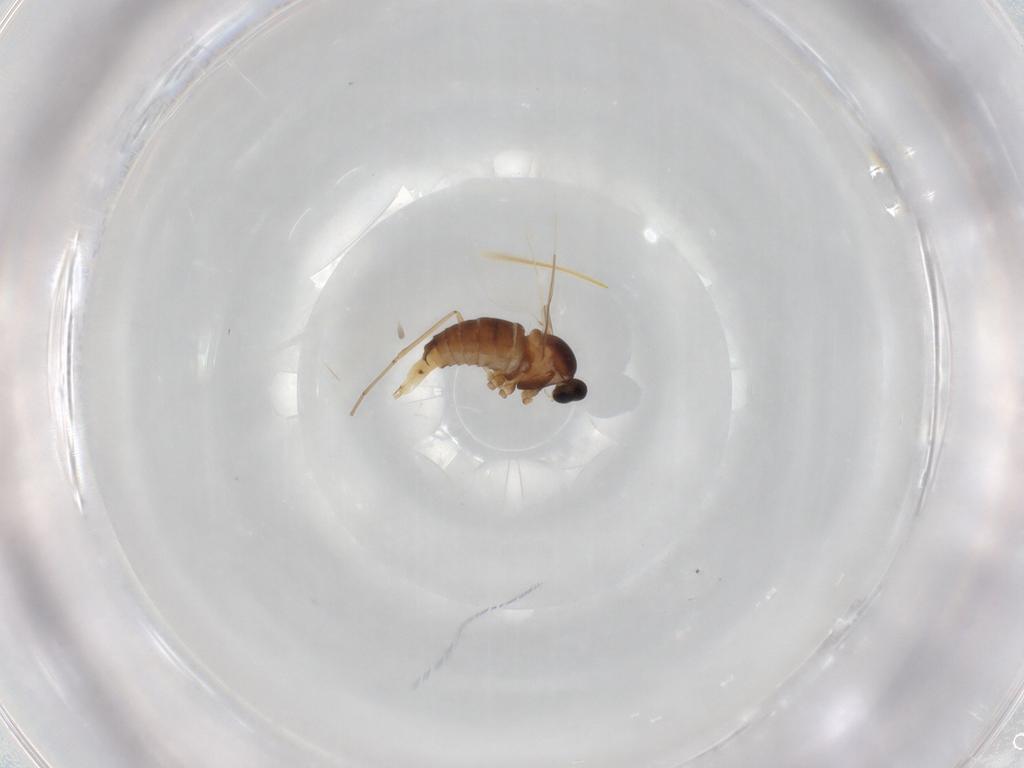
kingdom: Animalia
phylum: Arthropoda
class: Insecta
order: Diptera
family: Cecidomyiidae
